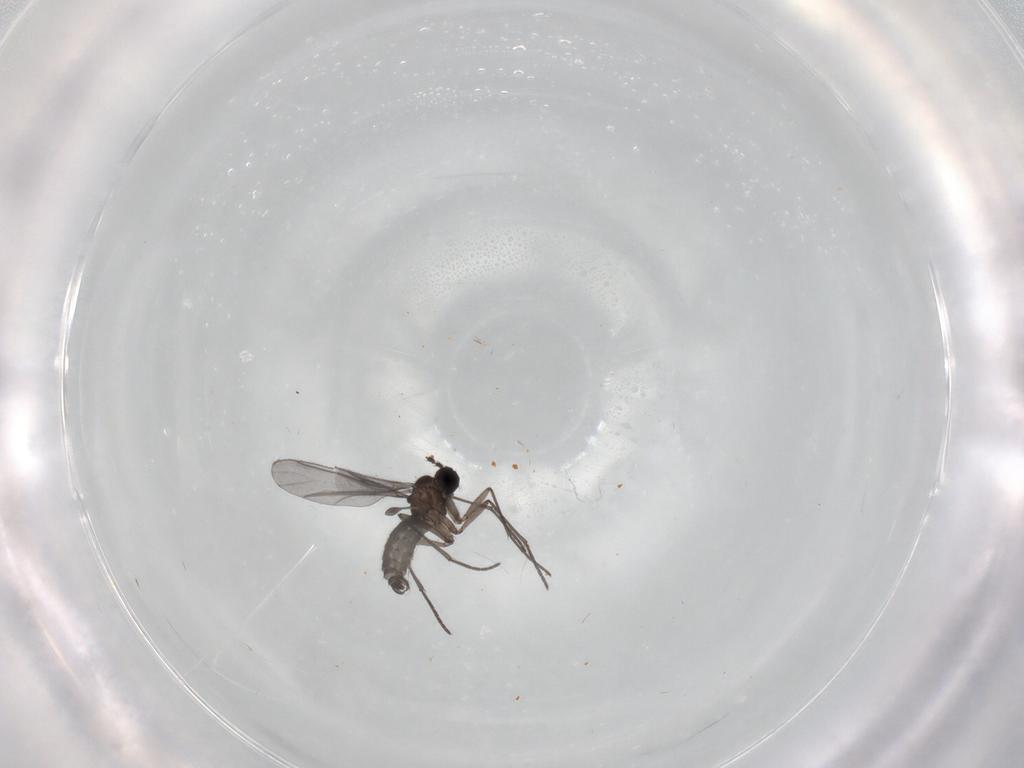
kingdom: Animalia
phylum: Arthropoda
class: Insecta
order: Diptera
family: Cecidomyiidae
